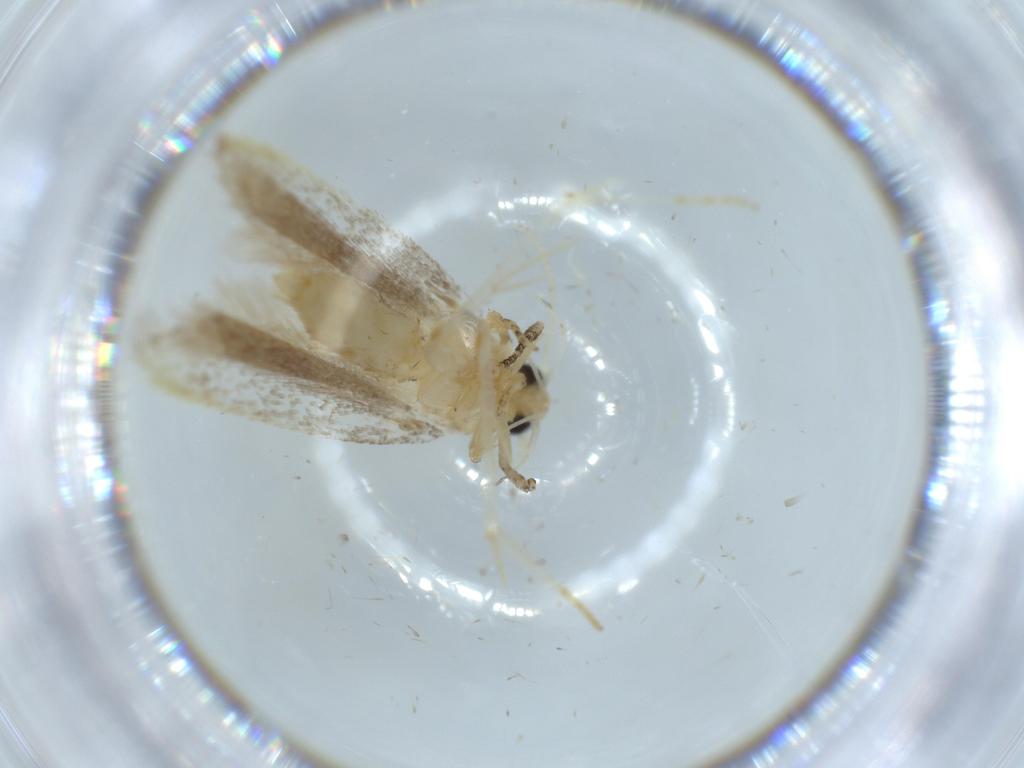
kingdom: Animalia
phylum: Arthropoda
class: Insecta
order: Lepidoptera
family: Autostichidae
